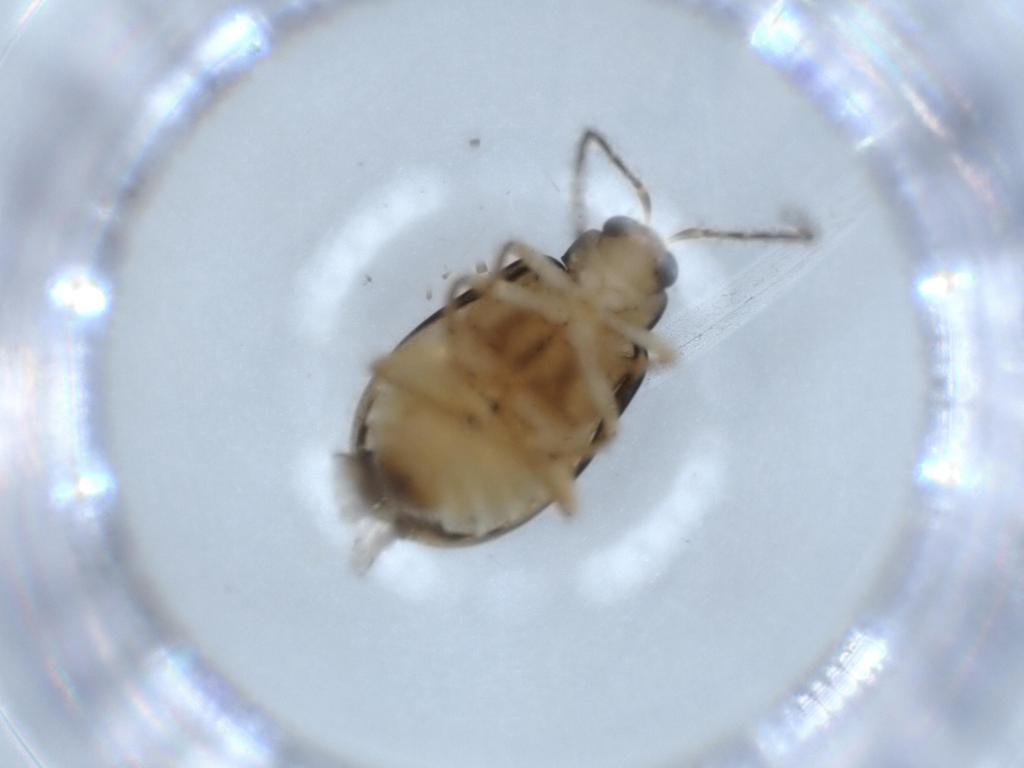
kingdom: Animalia
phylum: Arthropoda
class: Insecta
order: Coleoptera
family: Chrysomelidae
